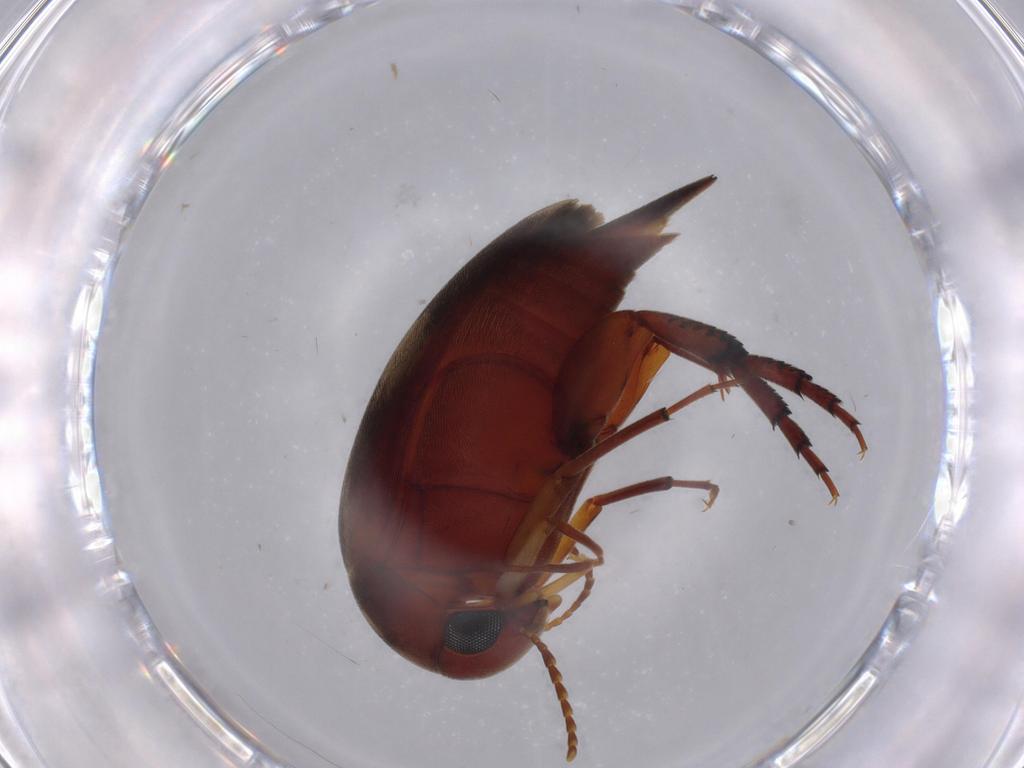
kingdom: Animalia
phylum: Arthropoda
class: Insecta
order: Coleoptera
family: Mordellidae
